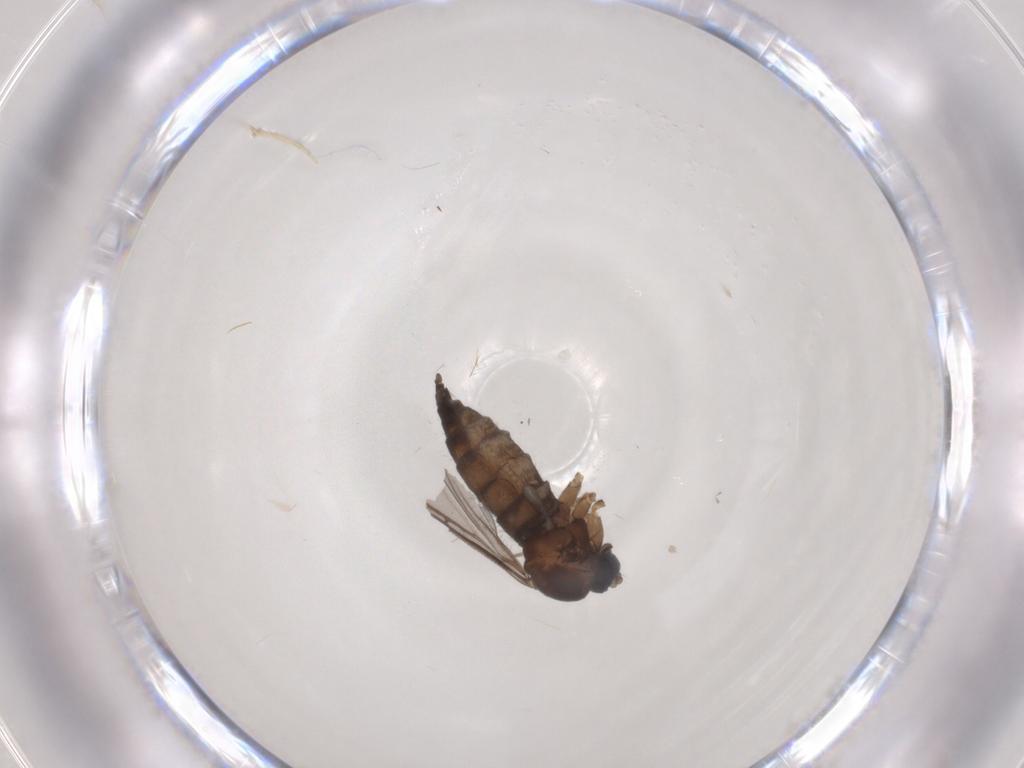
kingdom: Animalia
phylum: Arthropoda
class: Insecta
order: Diptera
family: Sciaridae
